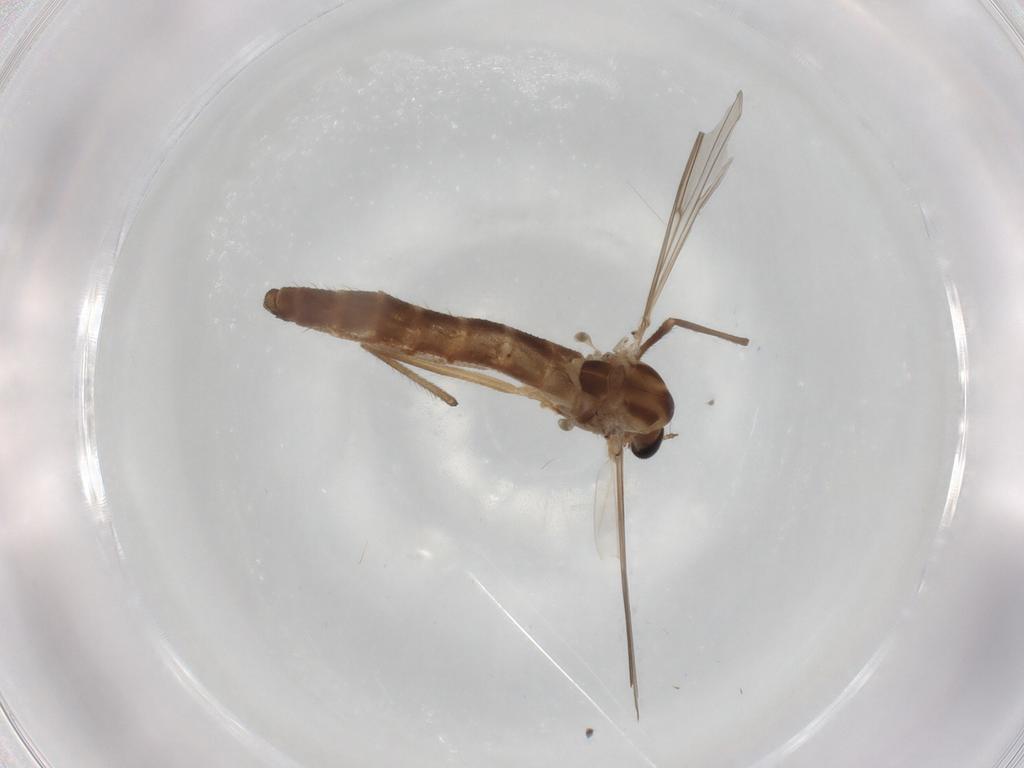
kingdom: Animalia
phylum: Arthropoda
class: Insecta
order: Diptera
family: Chironomidae
